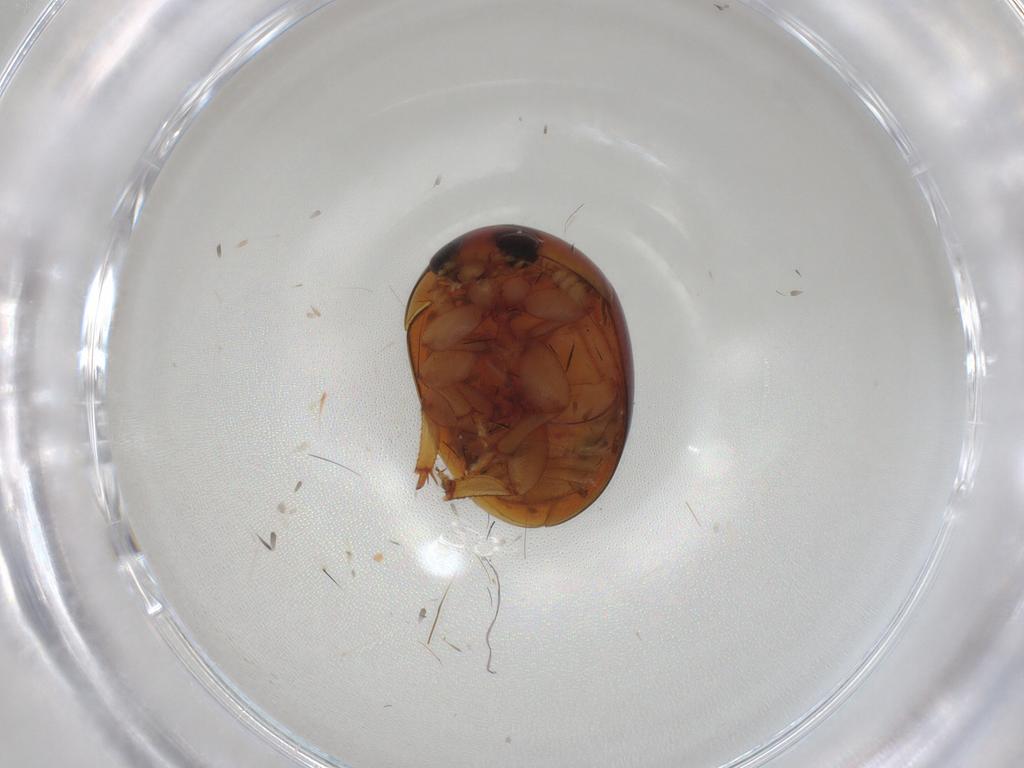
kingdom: Animalia
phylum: Arthropoda
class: Insecta
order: Coleoptera
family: Phalacridae
